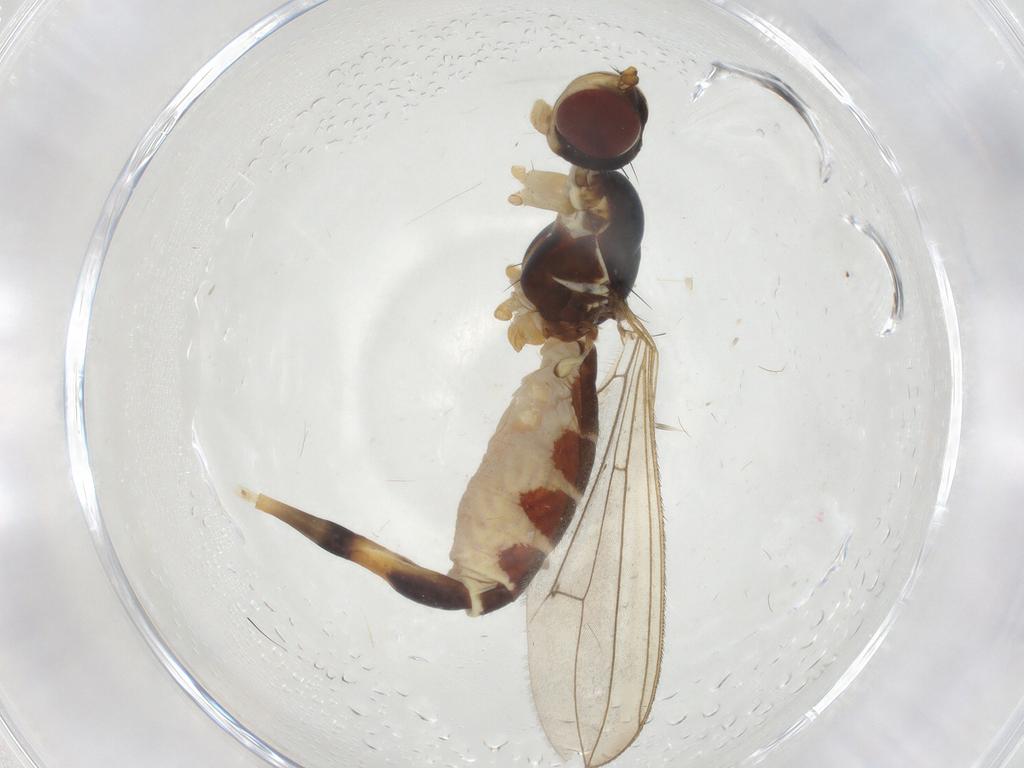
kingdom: Animalia
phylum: Arthropoda
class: Insecta
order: Diptera
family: Micropezidae
